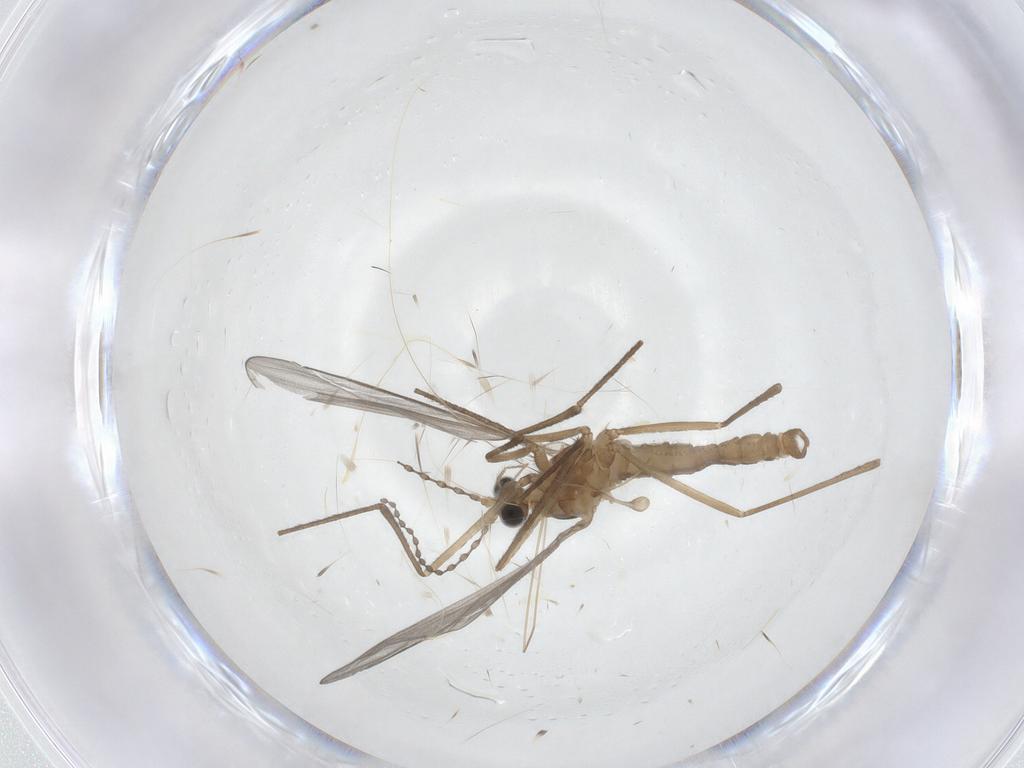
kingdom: Animalia
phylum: Arthropoda
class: Insecta
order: Diptera
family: Cecidomyiidae
